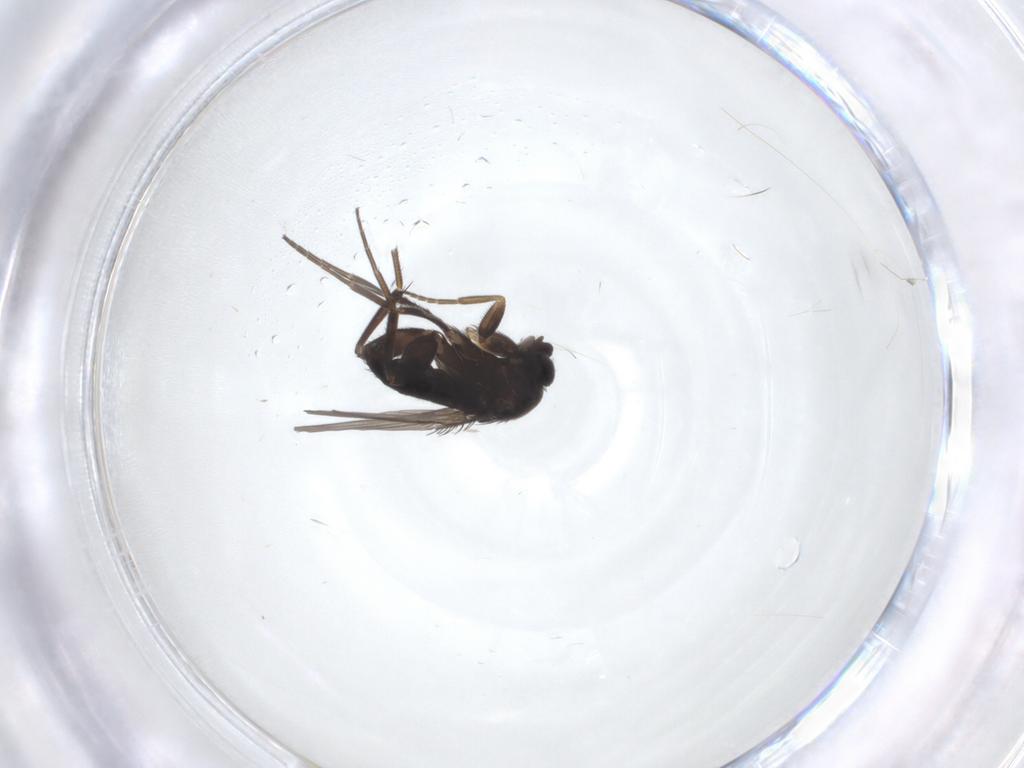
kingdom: Animalia
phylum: Arthropoda
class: Insecta
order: Diptera
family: Phoridae
